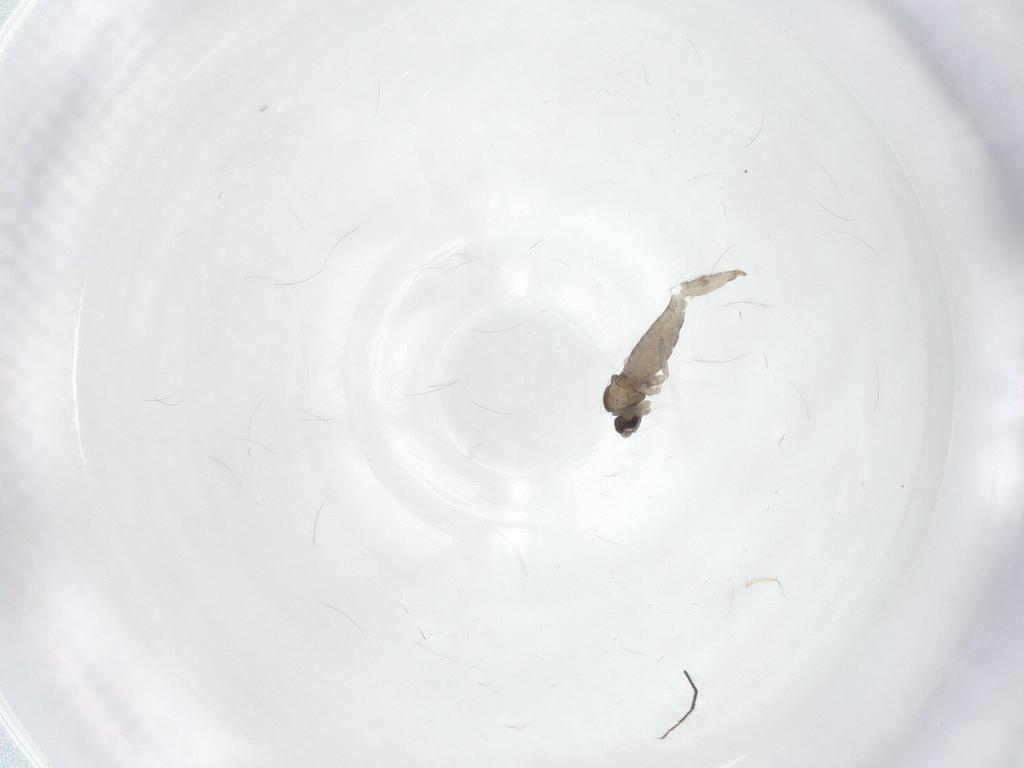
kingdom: Animalia
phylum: Arthropoda
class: Insecta
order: Diptera
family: Cecidomyiidae
